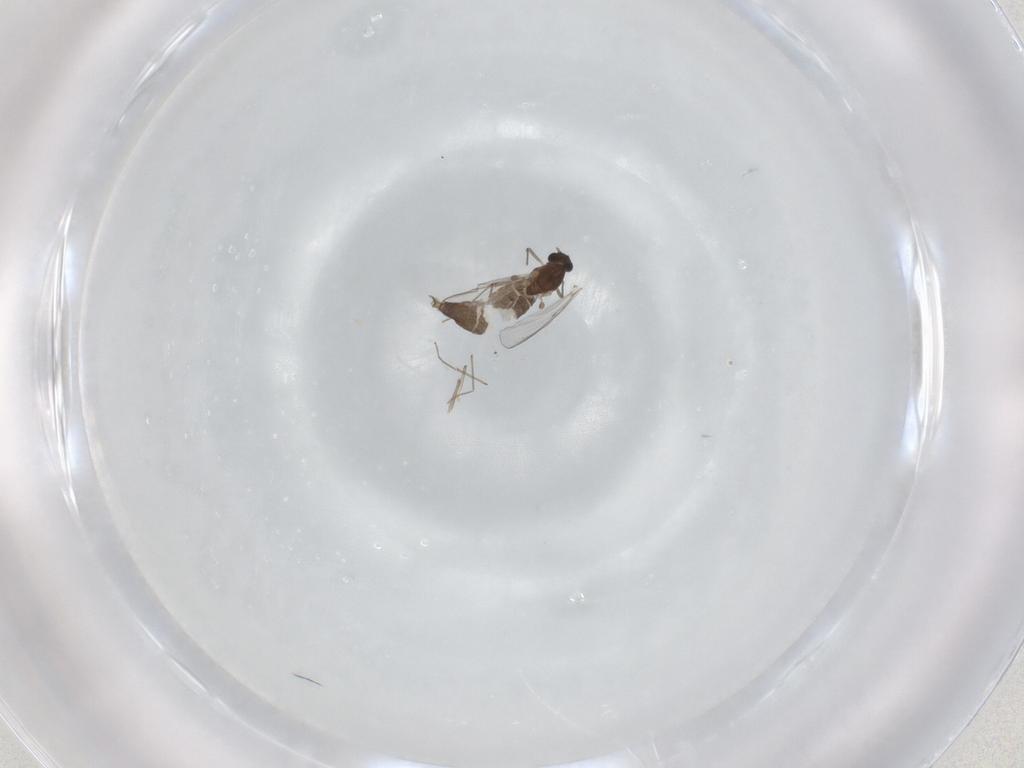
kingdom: Animalia
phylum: Arthropoda
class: Insecta
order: Diptera
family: Chironomidae
